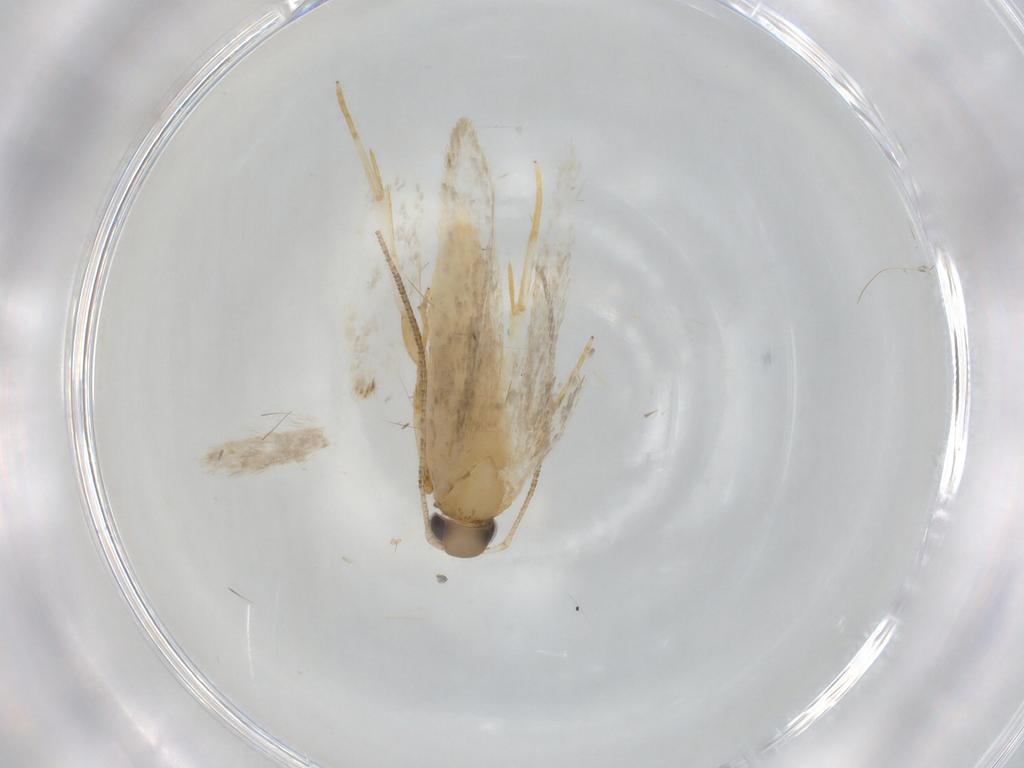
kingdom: Animalia
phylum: Arthropoda
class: Insecta
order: Lepidoptera
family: Autostichidae
